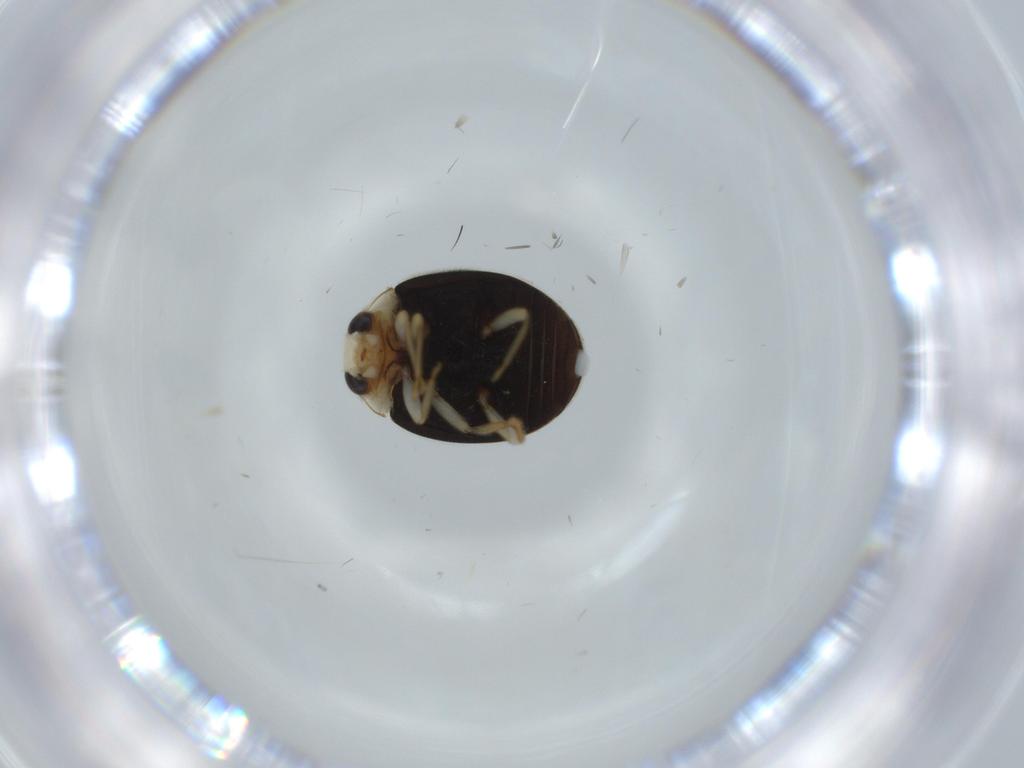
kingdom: Animalia
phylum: Arthropoda
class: Insecta
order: Coleoptera
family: Coccinellidae
